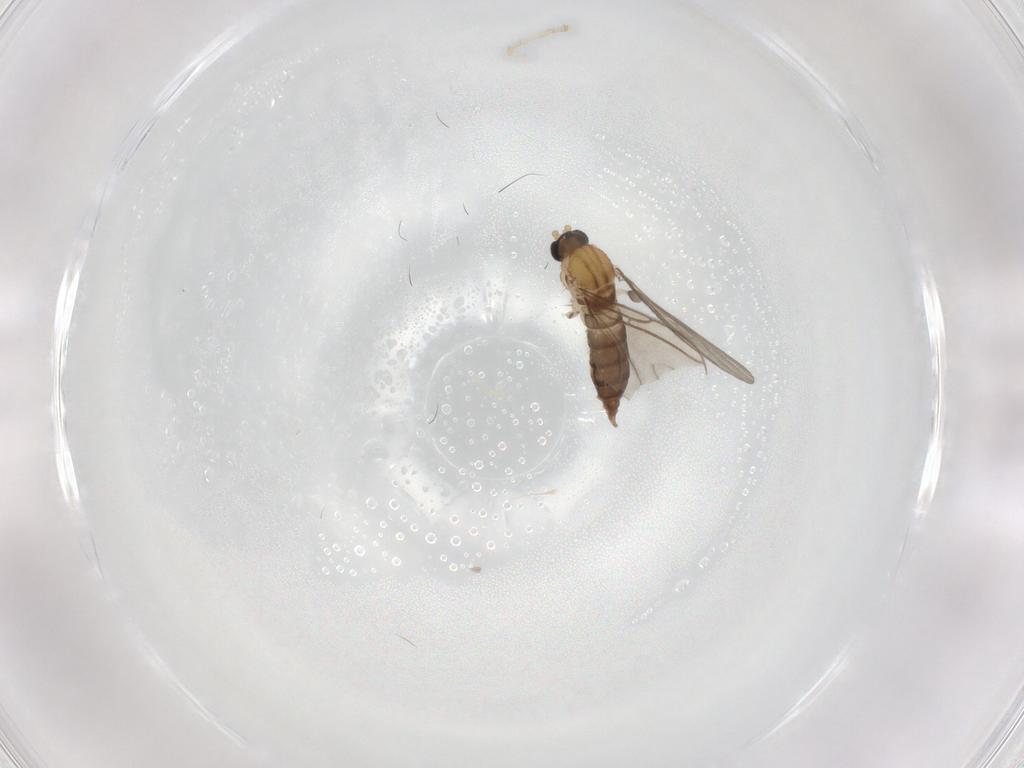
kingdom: Animalia
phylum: Arthropoda
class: Insecta
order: Diptera
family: Sciaridae
